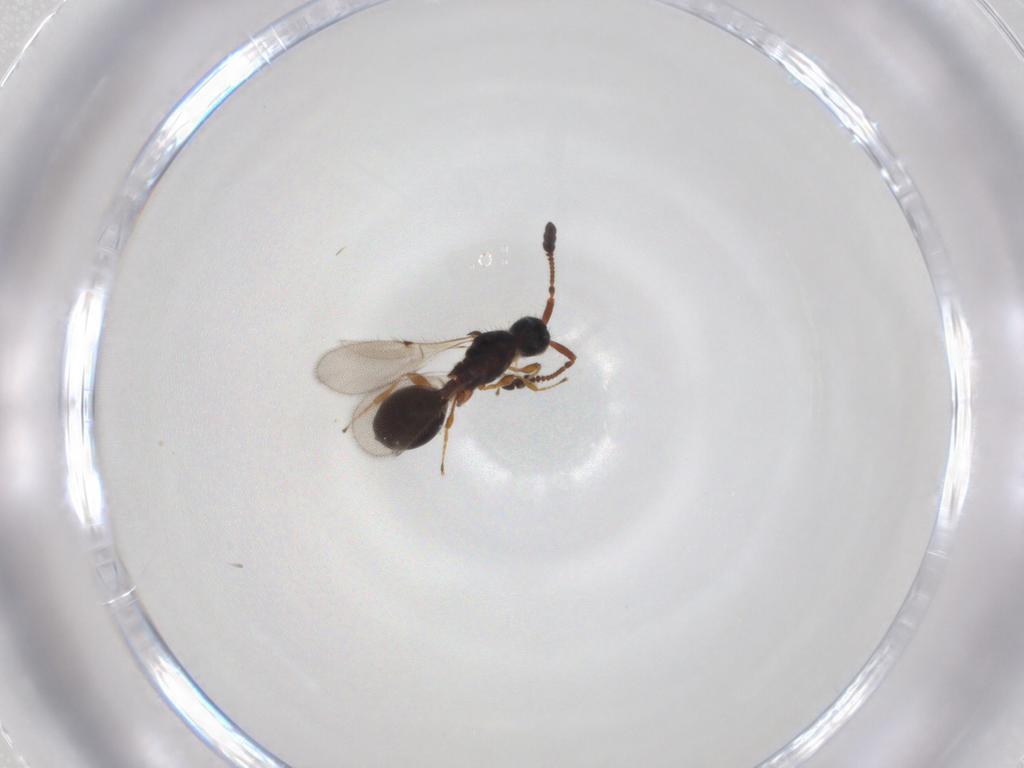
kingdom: Animalia
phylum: Arthropoda
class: Insecta
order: Hymenoptera
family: Diapriidae
